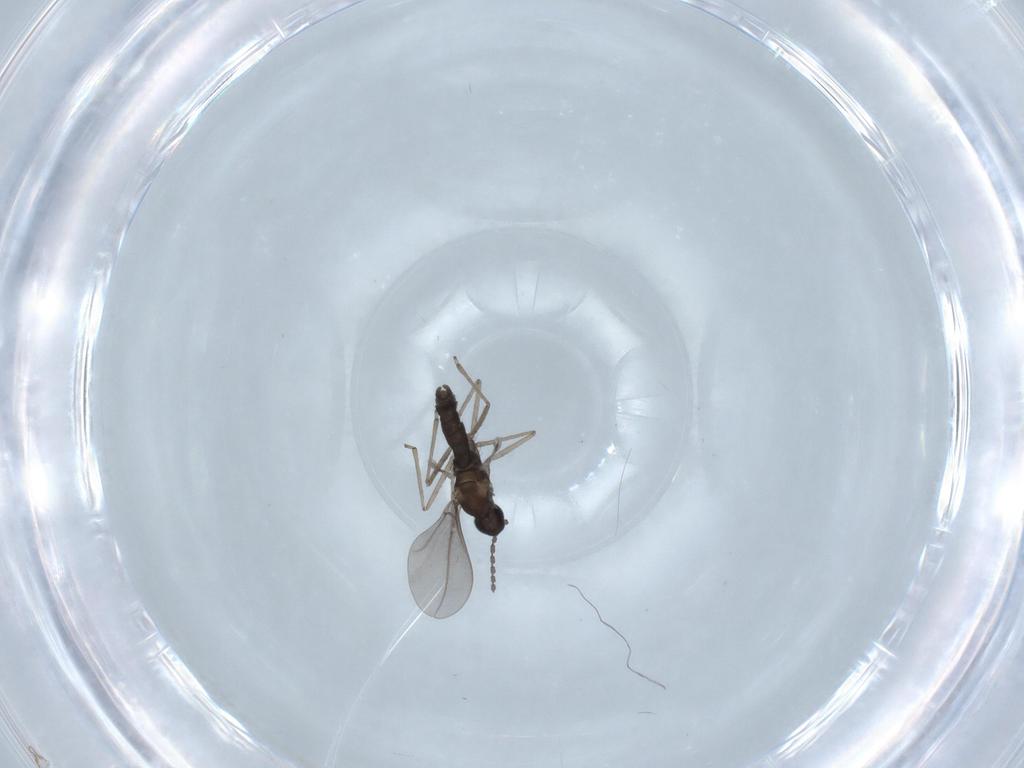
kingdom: Animalia
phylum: Arthropoda
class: Insecta
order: Diptera
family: Cecidomyiidae
